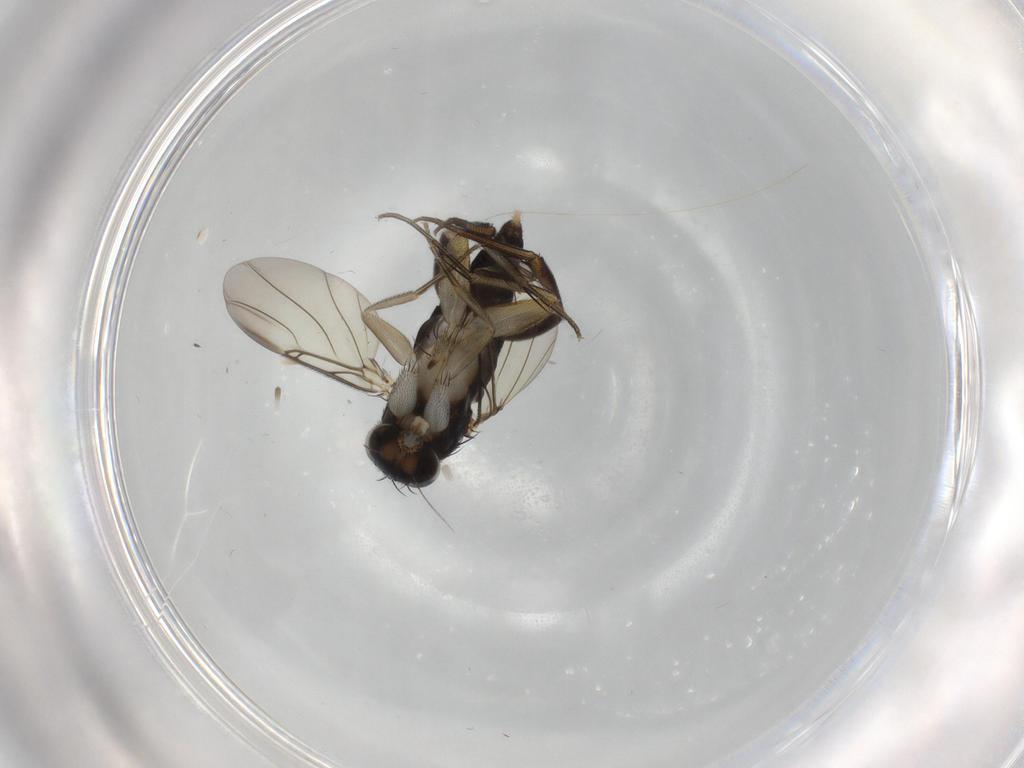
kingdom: Animalia
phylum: Arthropoda
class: Insecta
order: Diptera
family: Phoridae
